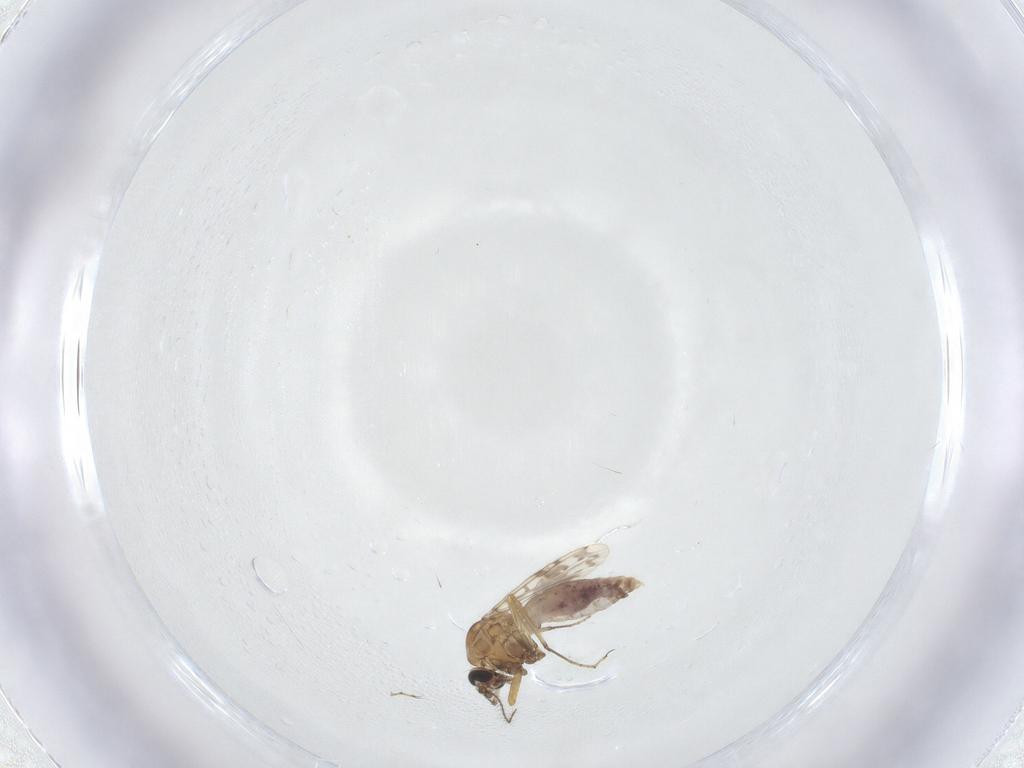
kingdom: Animalia
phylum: Arthropoda
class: Insecta
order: Diptera
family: Psychodidae
